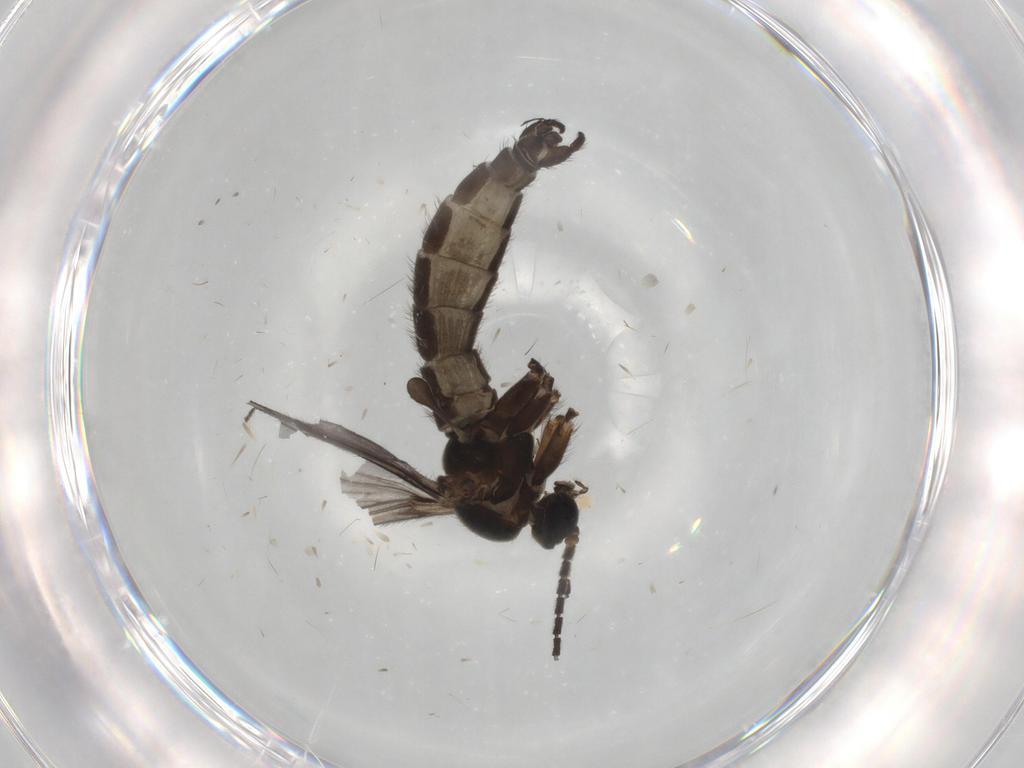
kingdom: Animalia
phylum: Arthropoda
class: Insecta
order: Diptera
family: Sciaridae
